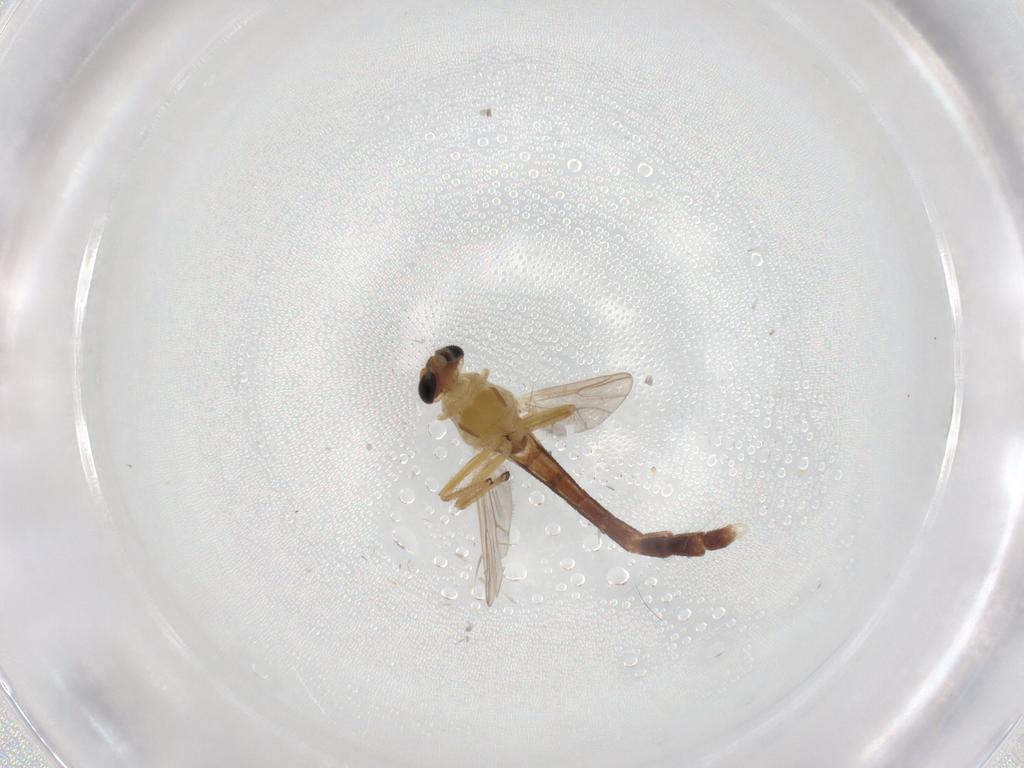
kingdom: Animalia
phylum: Arthropoda
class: Insecta
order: Diptera
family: Chironomidae
